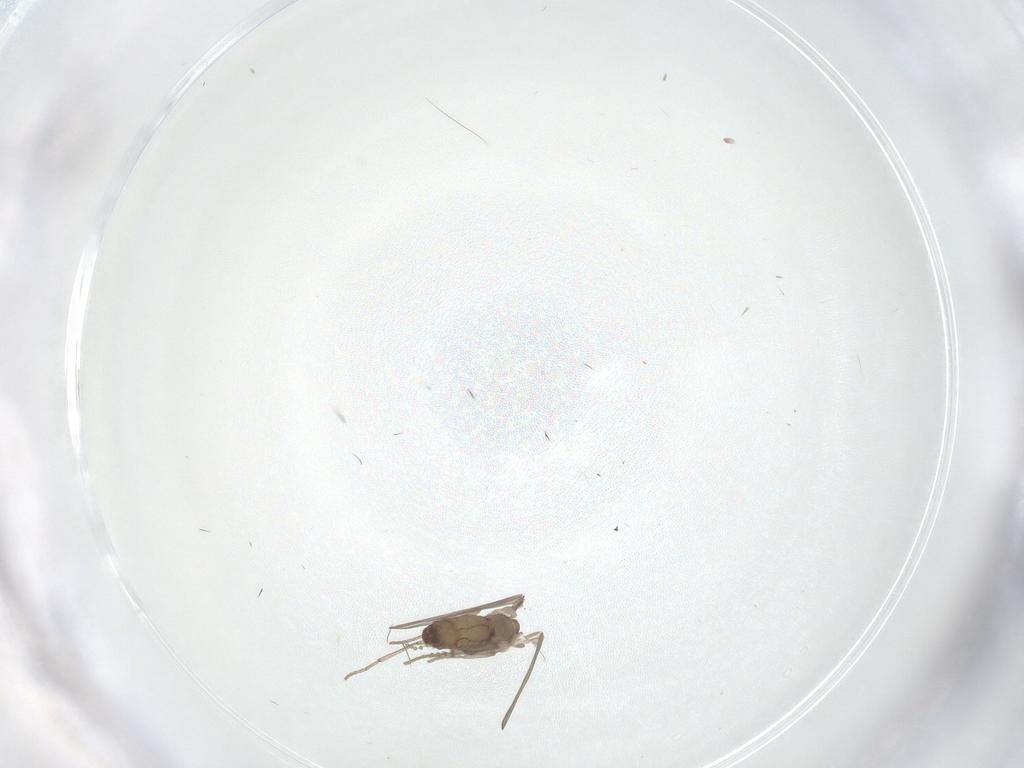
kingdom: Animalia
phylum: Arthropoda
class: Insecta
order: Diptera
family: Psychodidae
